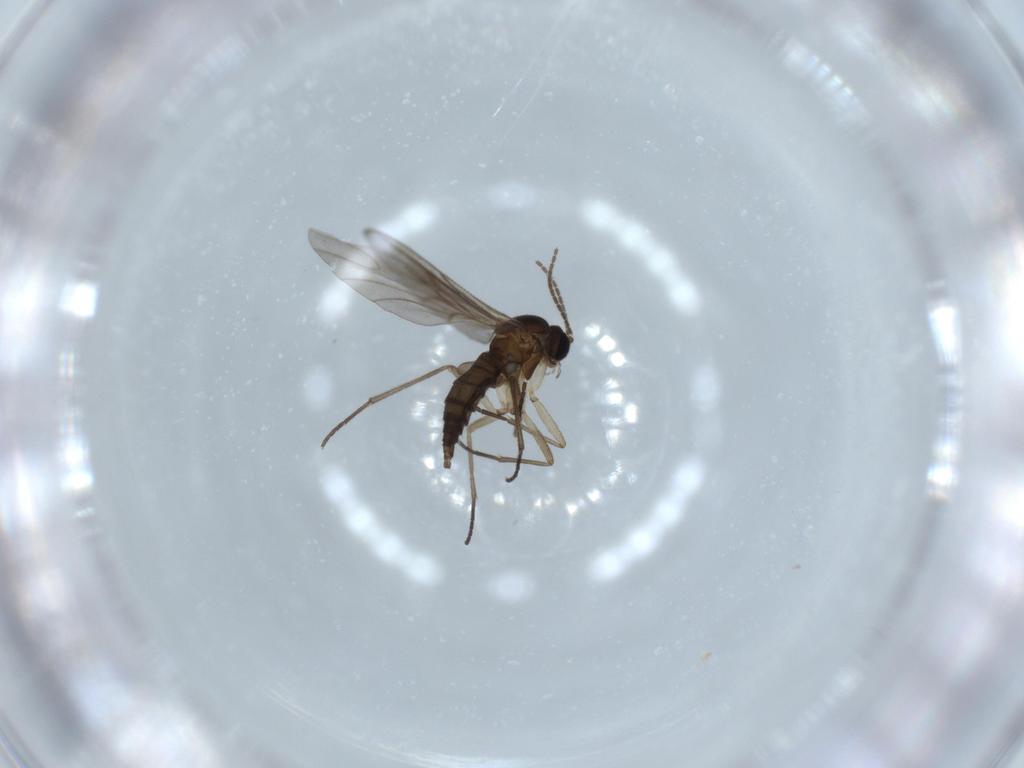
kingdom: Animalia
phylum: Arthropoda
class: Insecta
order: Diptera
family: Sciaridae
